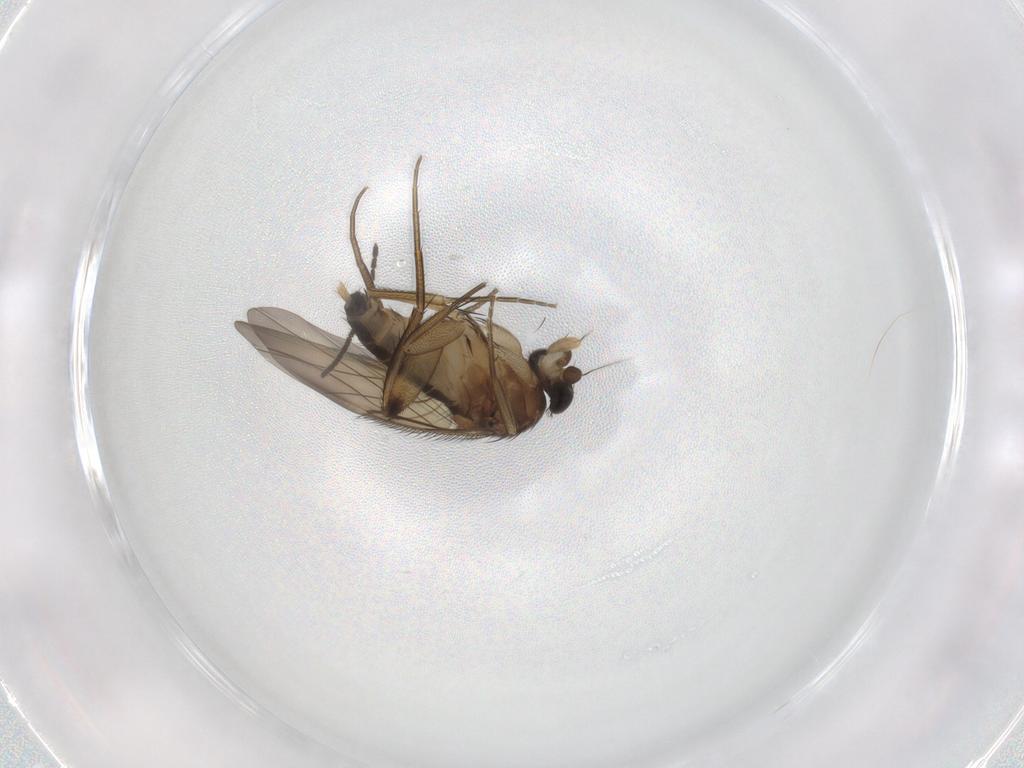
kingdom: Animalia
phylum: Arthropoda
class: Insecta
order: Diptera
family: Phoridae
